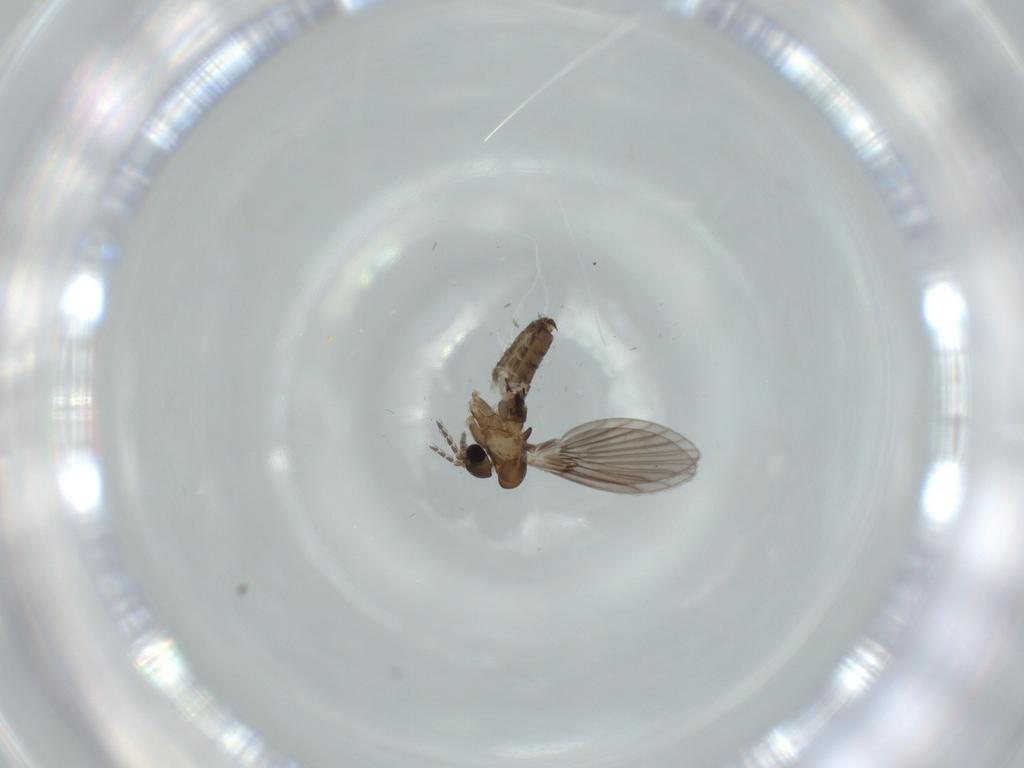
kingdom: Animalia
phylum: Arthropoda
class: Insecta
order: Diptera
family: Psychodidae
